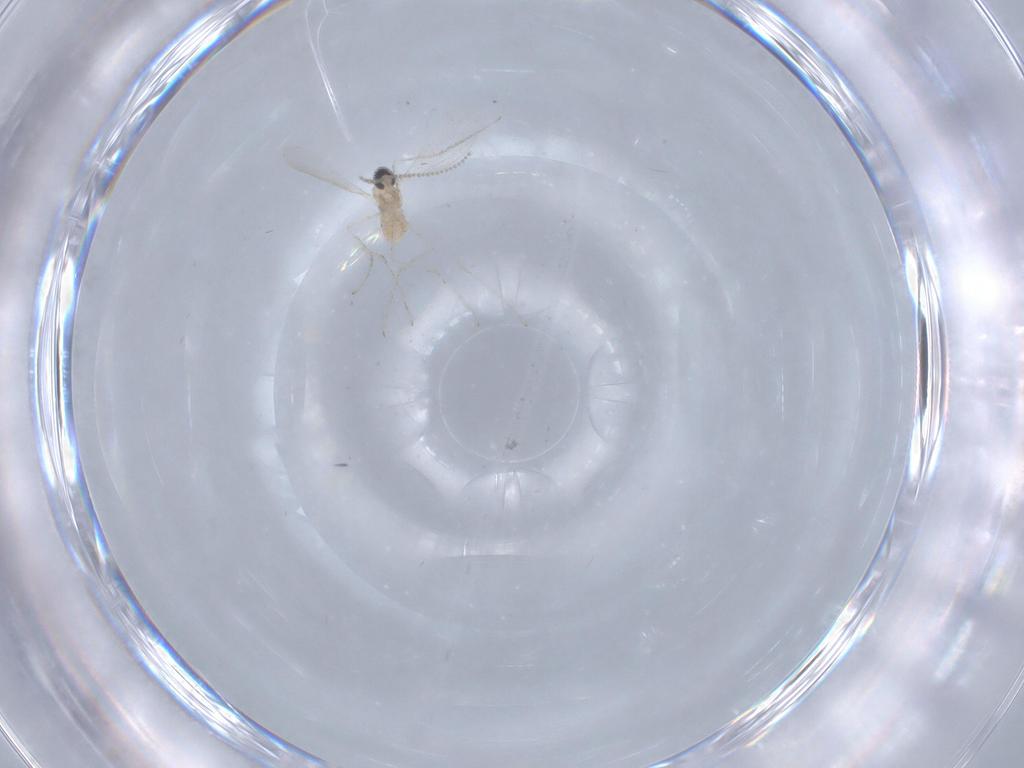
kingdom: Animalia
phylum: Arthropoda
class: Insecta
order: Diptera
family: Cecidomyiidae
